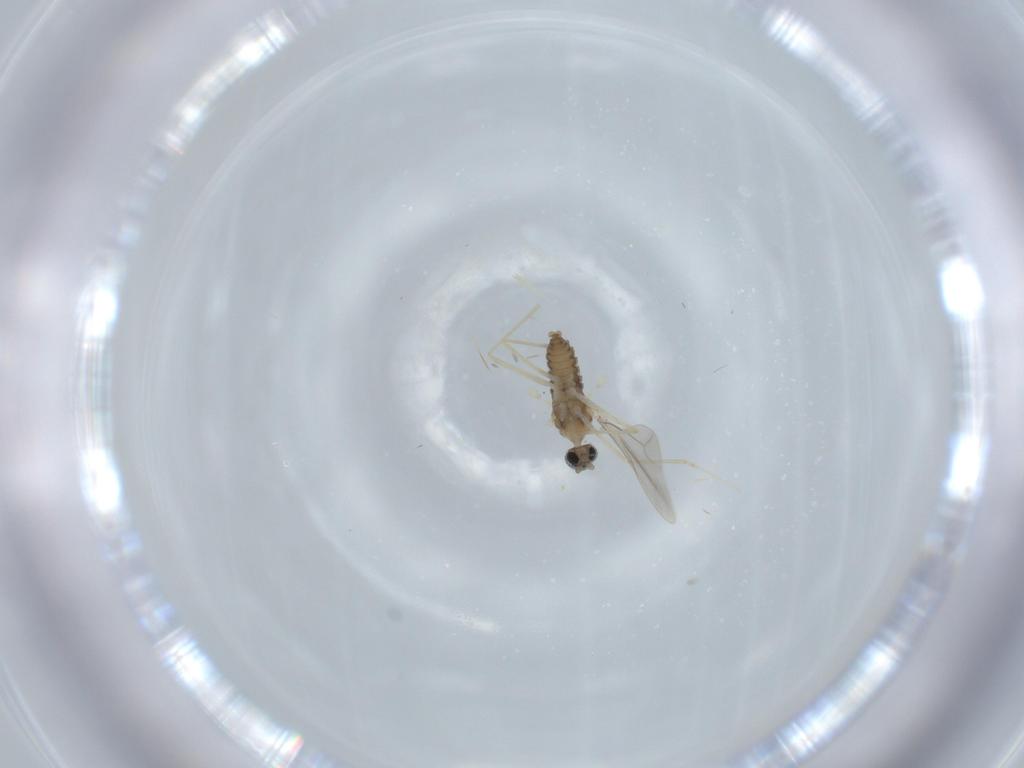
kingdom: Animalia
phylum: Arthropoda
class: Insecta
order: Diptera
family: Cecidomyiidae
